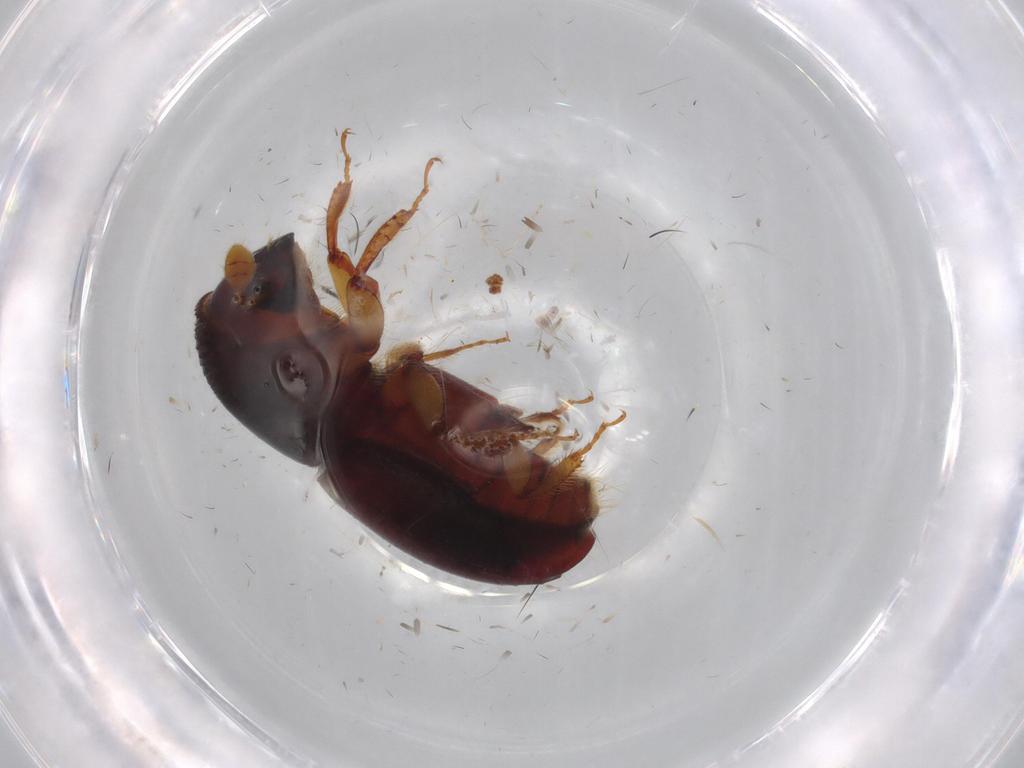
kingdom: Animalia
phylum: Arthropoda
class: Insecta
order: Coleoptera
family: Curculionidae
